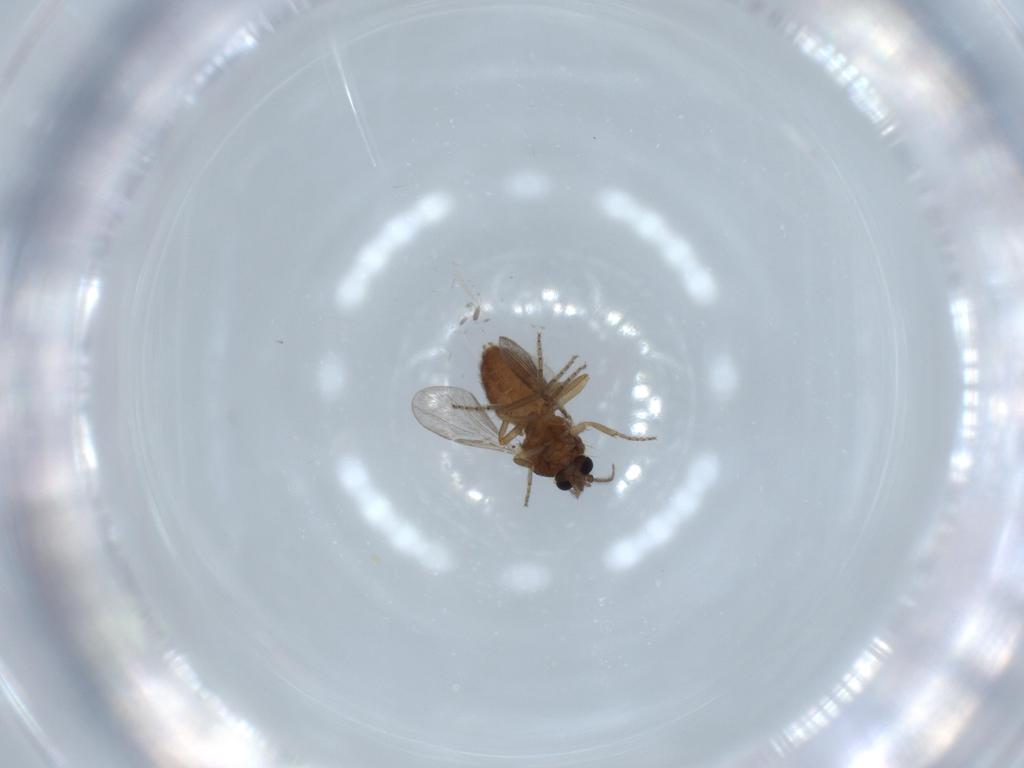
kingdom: Animalia
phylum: Arthropoda
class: Insecta
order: Diptera
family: Ceratopogonidae
